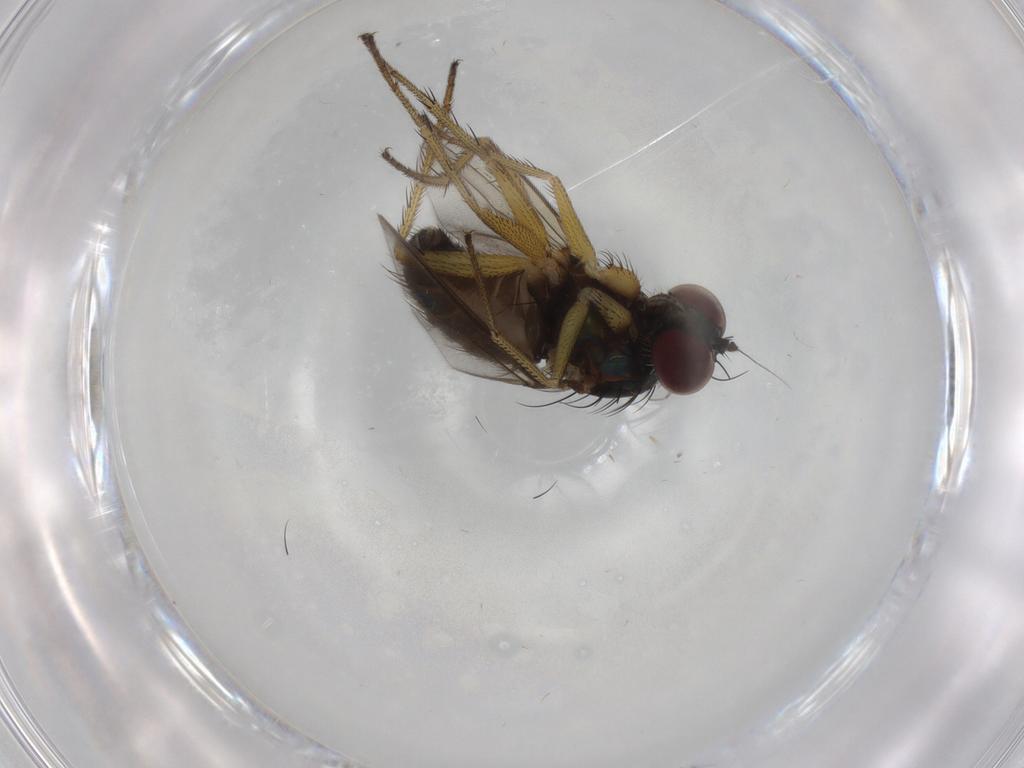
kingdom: Animalia
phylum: Arthropoda
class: Insecta
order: Diptera
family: Dolichopodidae
